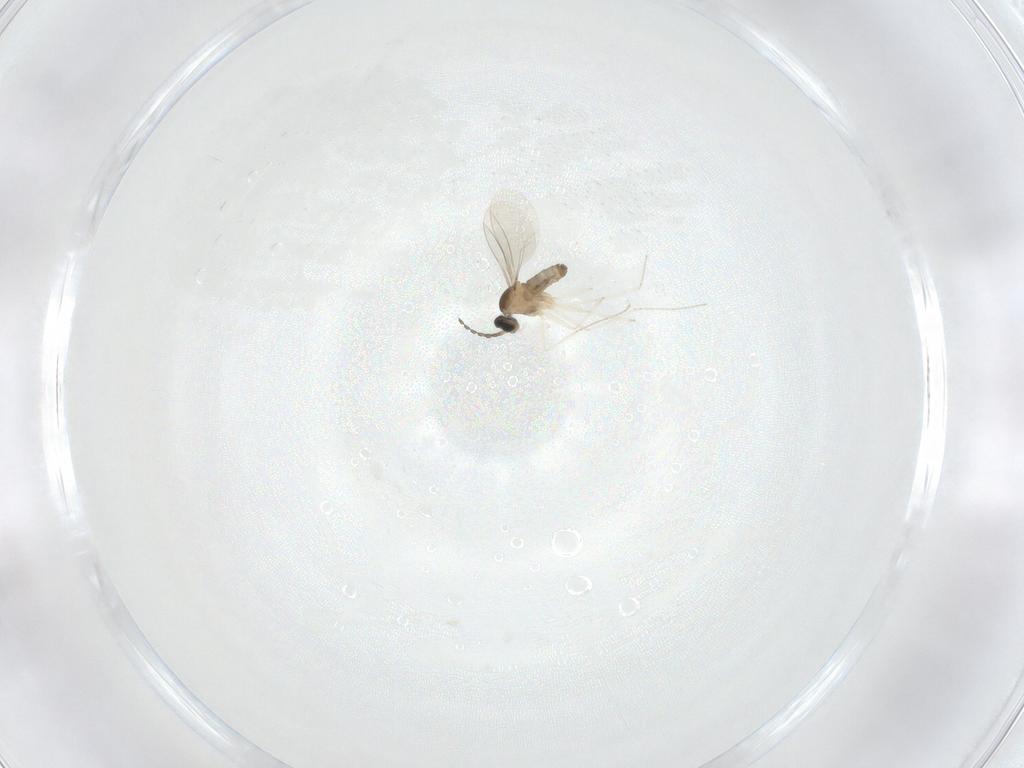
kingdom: Animalia
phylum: Arthropoda
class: Insecta
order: Diptera
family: Cecidomyiidae
